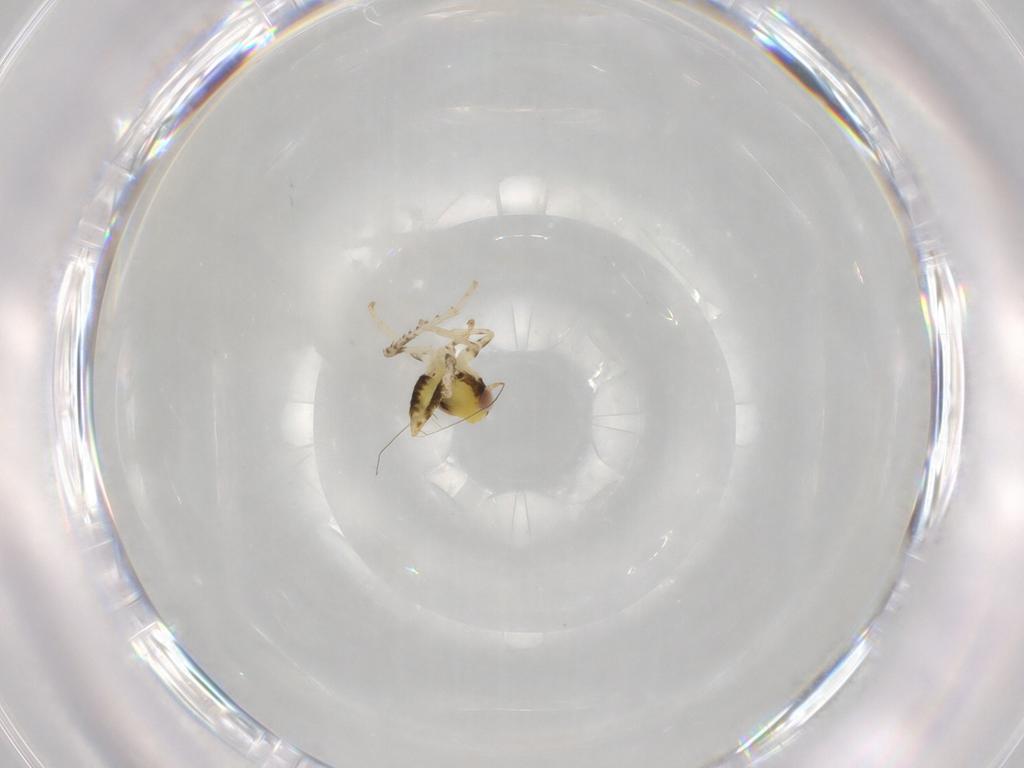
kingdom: Animalia
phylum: Arthropoda
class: Insecta
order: Hemiptera
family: Cicadellidae
